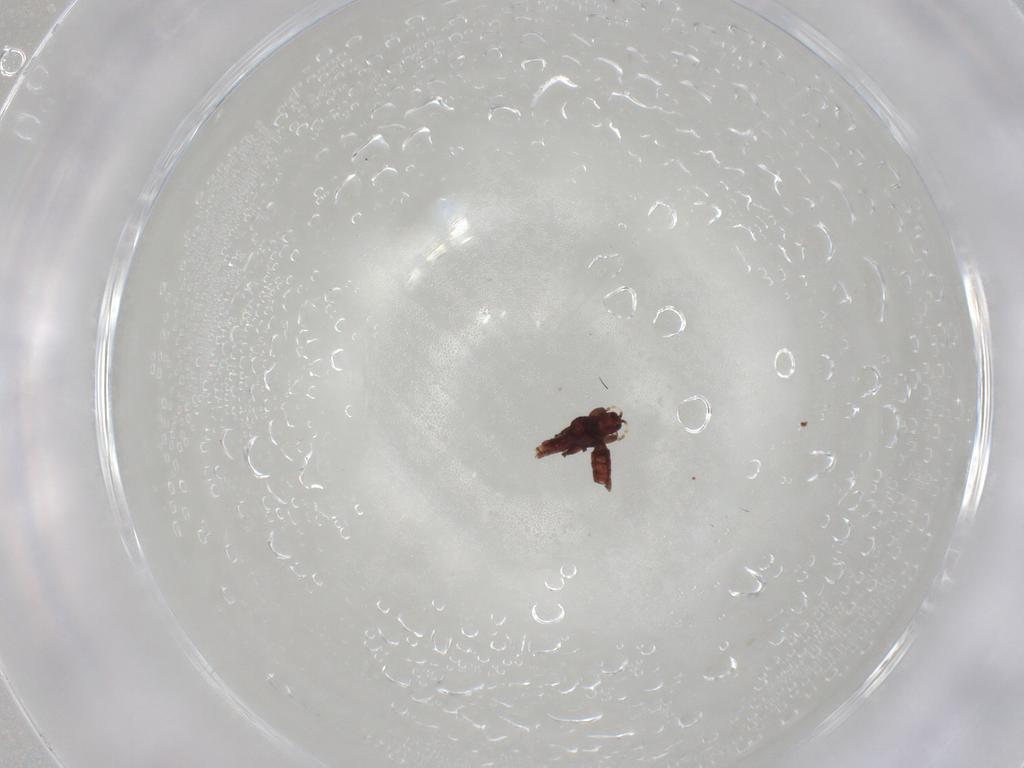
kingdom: Animalia
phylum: Arthropoda
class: Insecta
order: Thysanoptera
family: Phlaeothripidae
